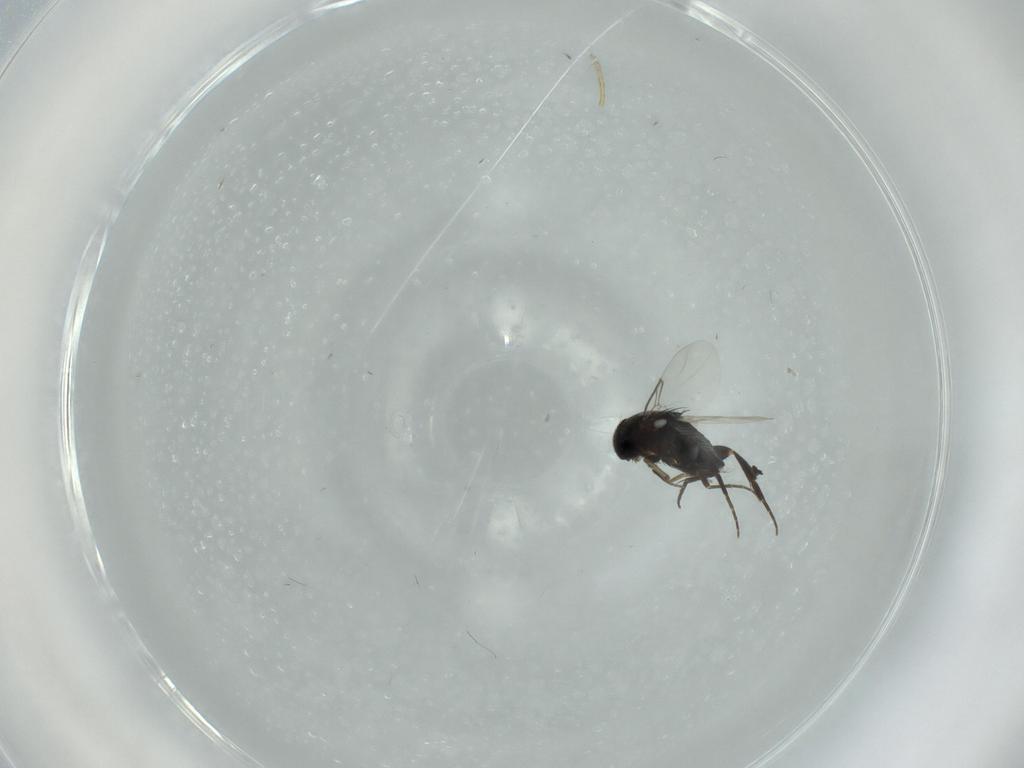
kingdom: Animalia
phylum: Arthropoda
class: Insecta
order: Diptera
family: Phoridae
